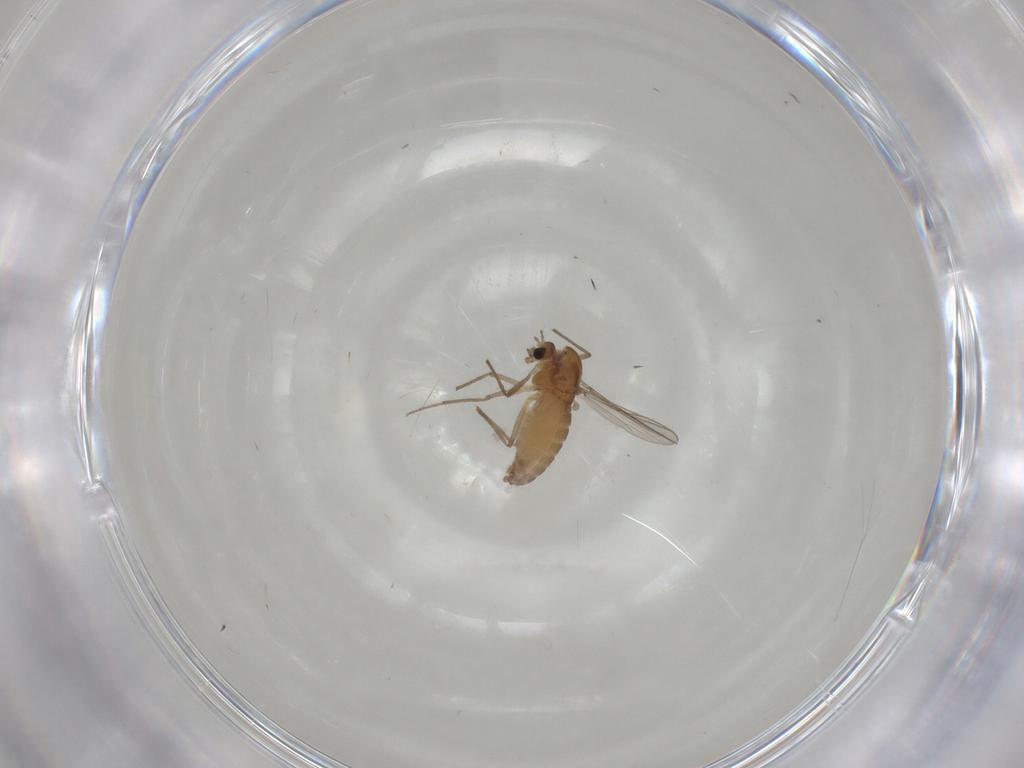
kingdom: Animalia
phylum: Arthropoda
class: Insecta
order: Diptera
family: Chironomidae
